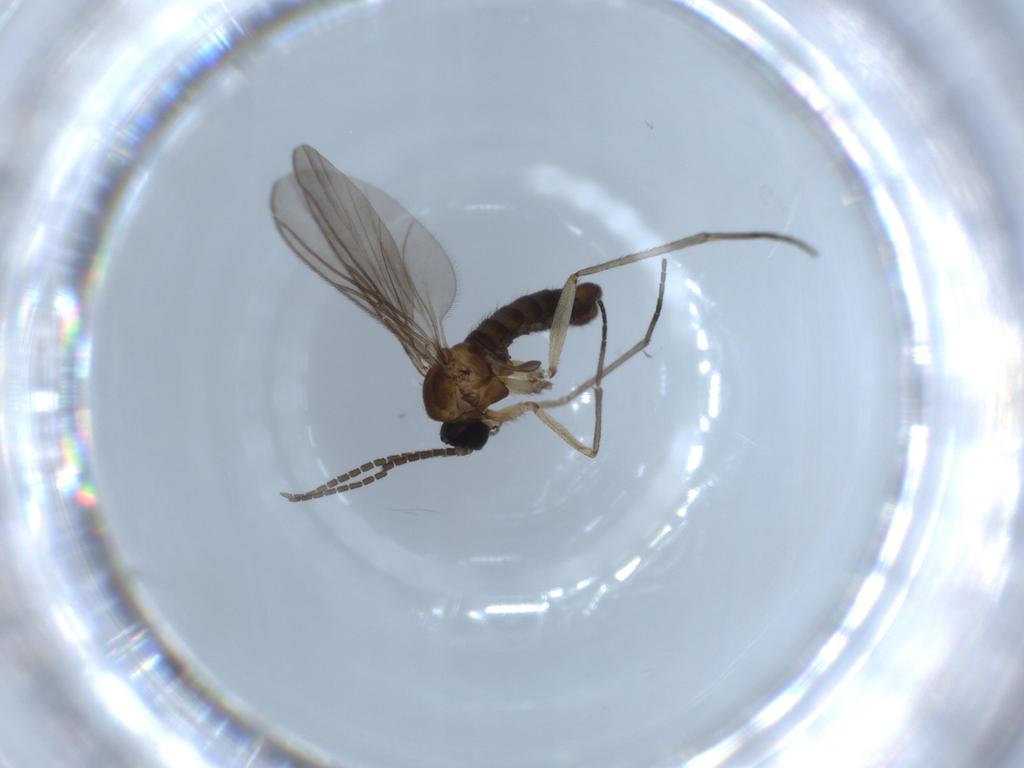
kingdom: Animalia
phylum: Arthropoda
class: Insecta
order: Diptera
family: Sciaridae
